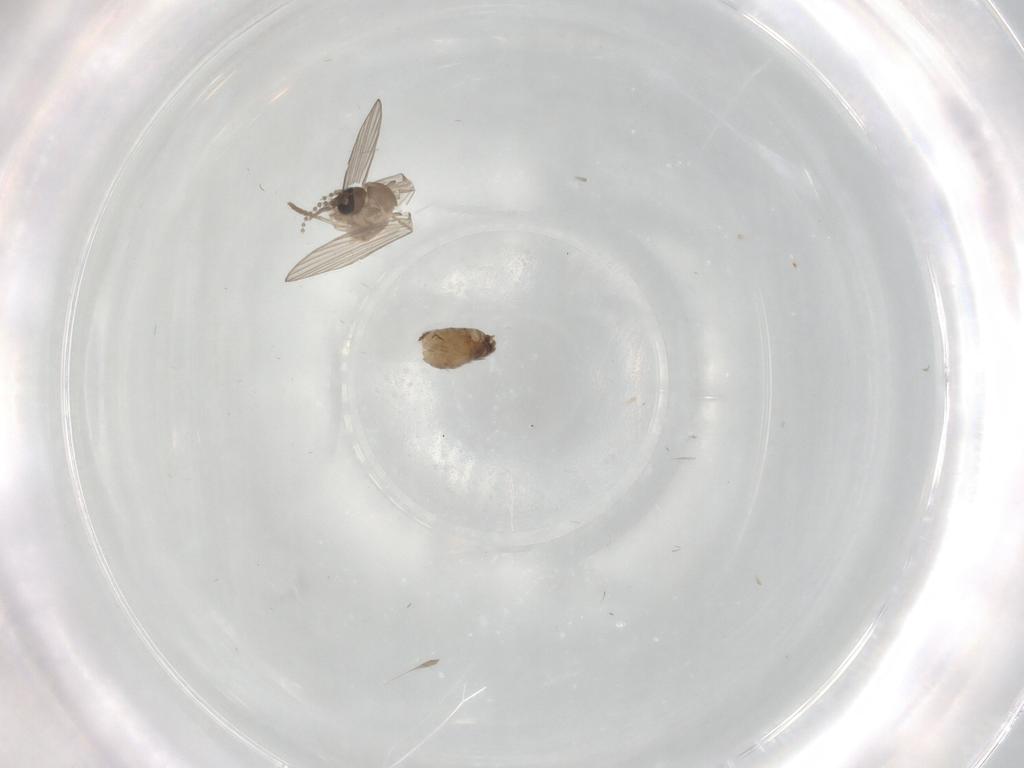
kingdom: Animalia
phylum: Arthropoda
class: Insecta
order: Diptera
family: Psychodidae
